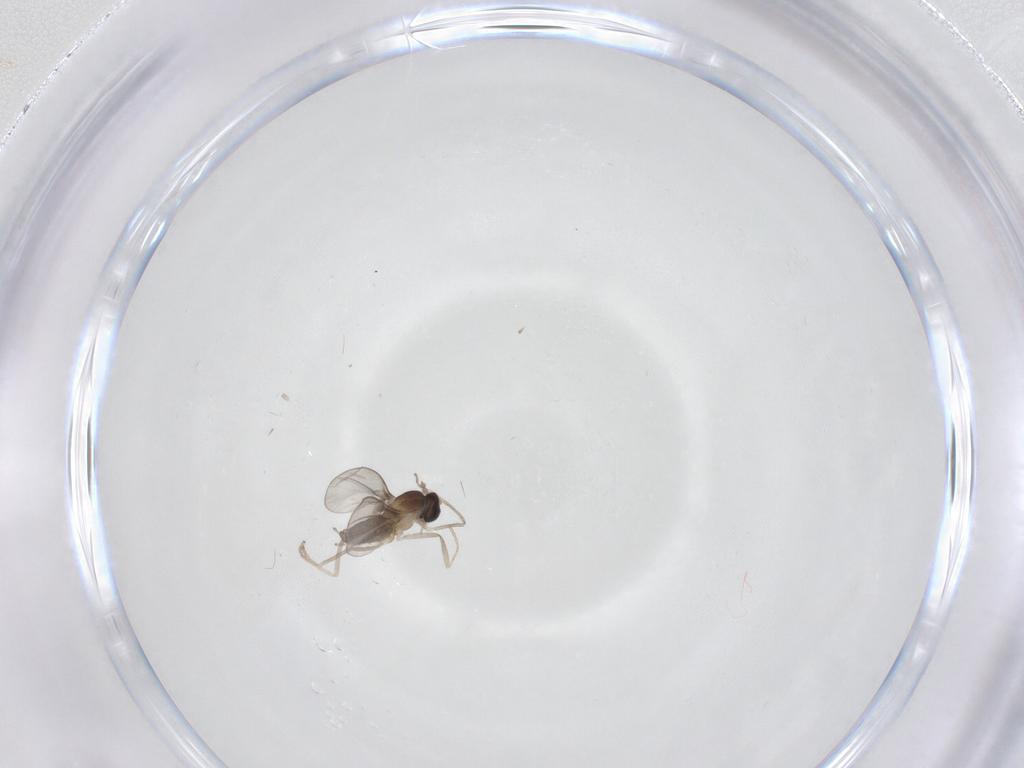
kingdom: Animalia
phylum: Arthropoda
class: Insecta
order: Diptera
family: Cecidomyiidae
